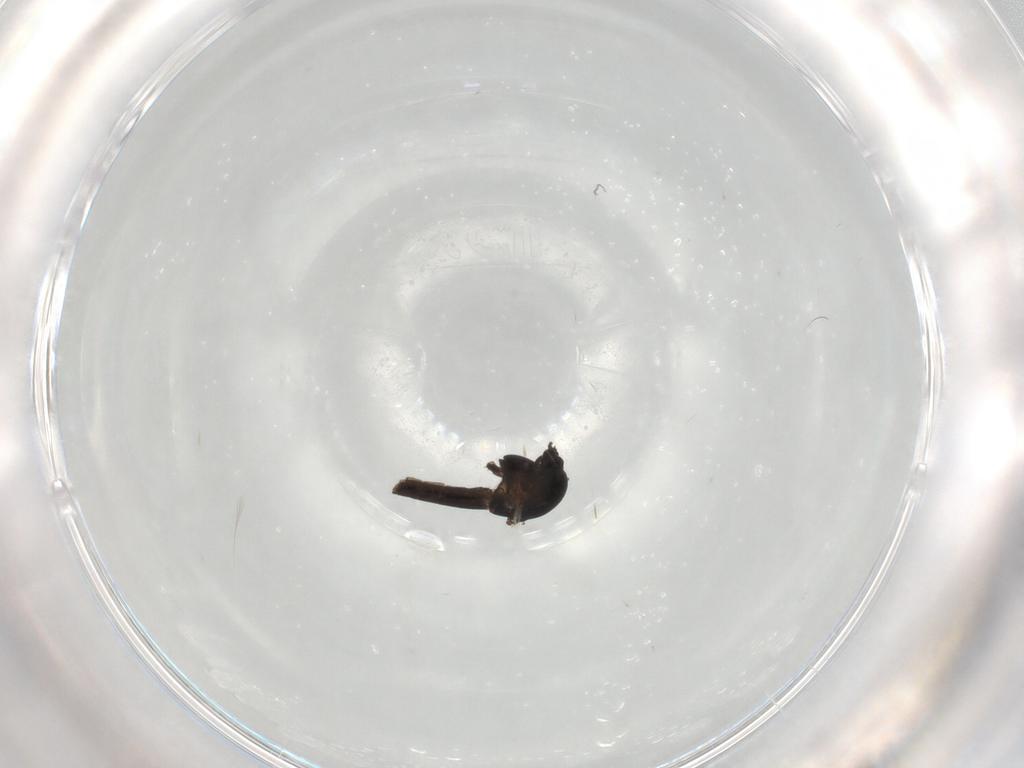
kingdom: Animalia
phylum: Arthropoda
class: Insecta
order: Diptera
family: Chironomidae
